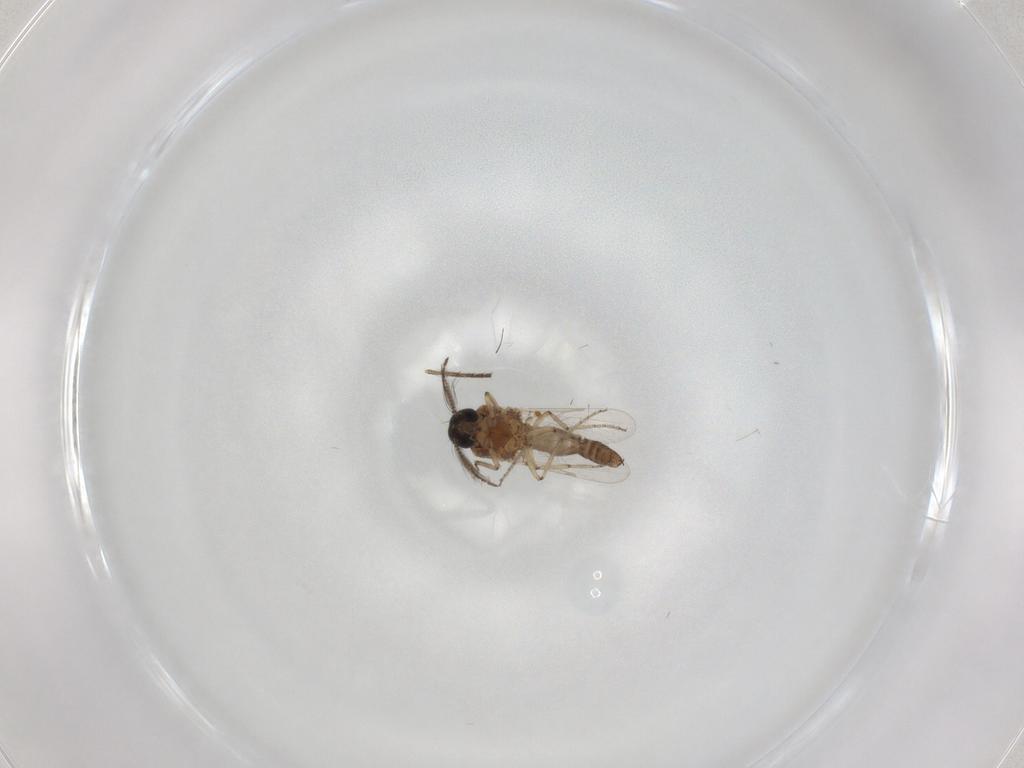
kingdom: Animalia
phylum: Arthropoda
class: Insecta
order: Diptera
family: Ceratopogonidae
